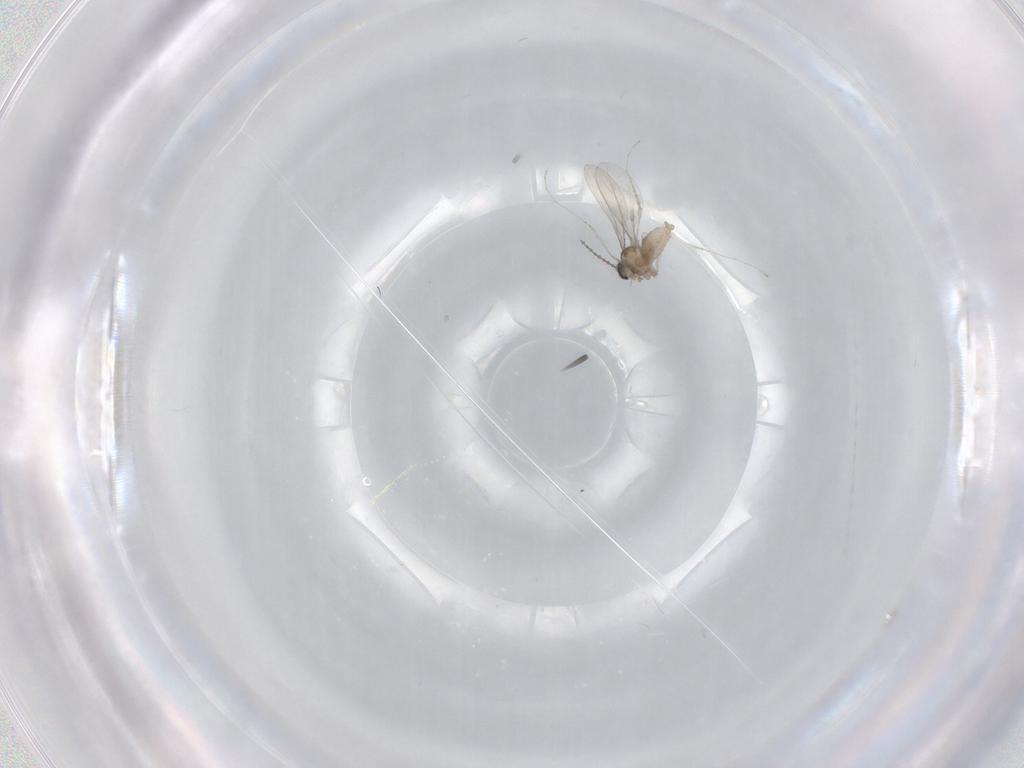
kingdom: Animalia
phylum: Arthropoda
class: Insecta
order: Diptera
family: Cecidomyiidae
